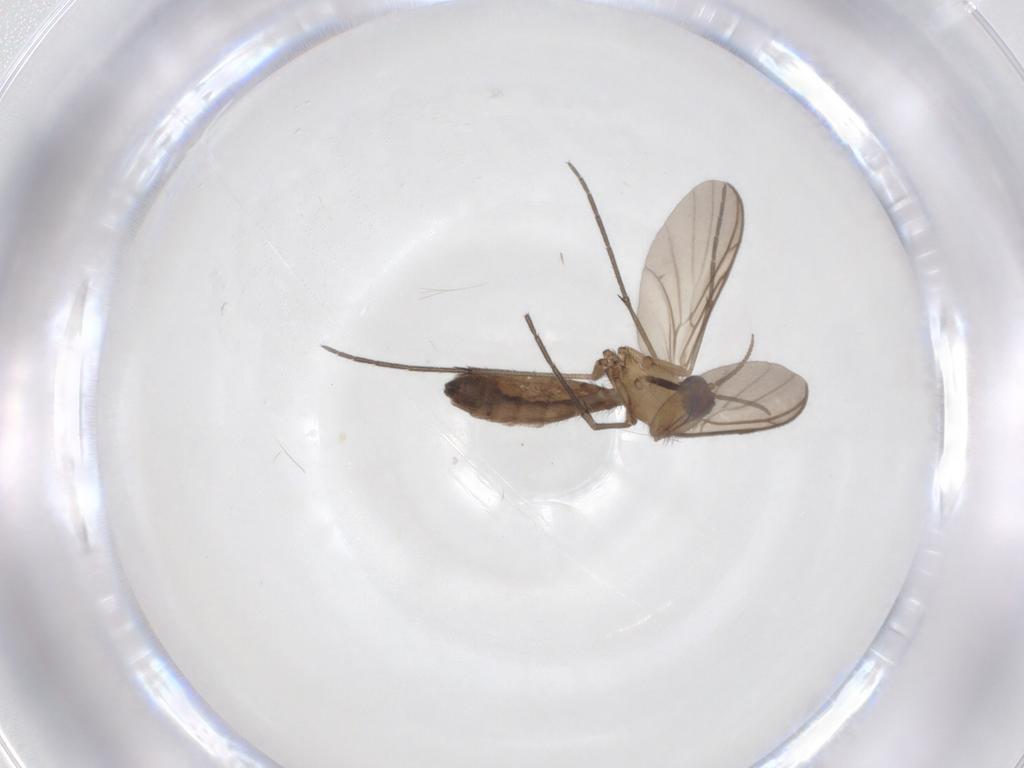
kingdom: Animalia
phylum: Arthropoda
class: Insecta
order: Diptera
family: Keroplatidae
